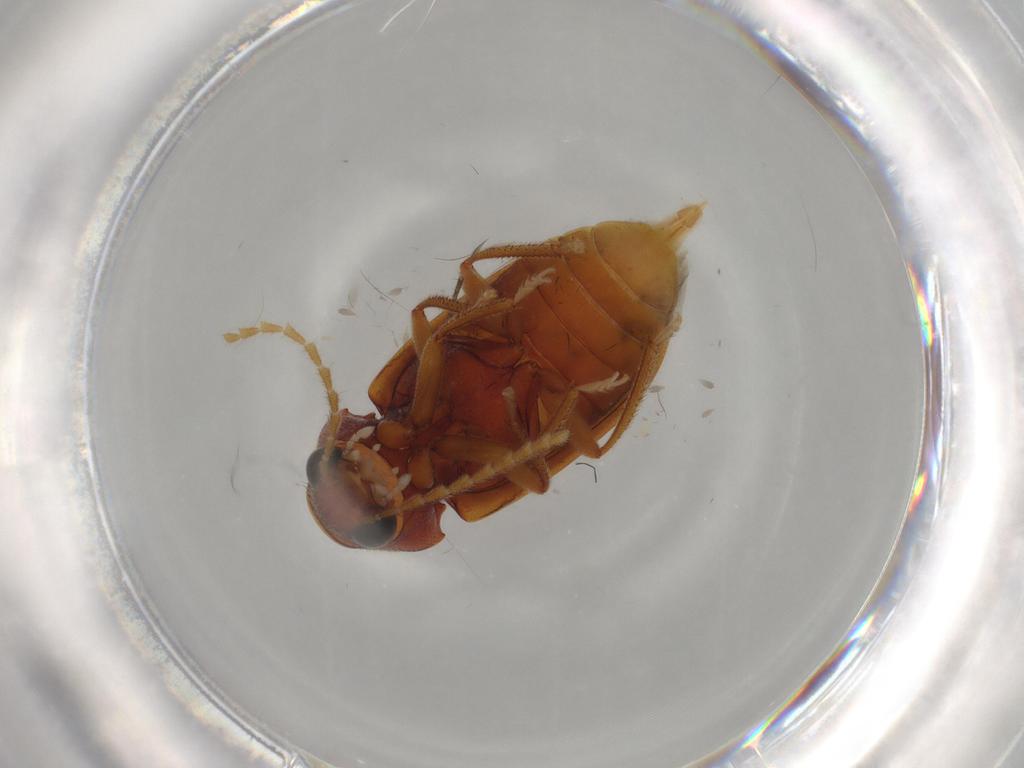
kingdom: Animalia
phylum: Arthropoda
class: Insecta
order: Coleoptera
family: Ptilodactylidae
